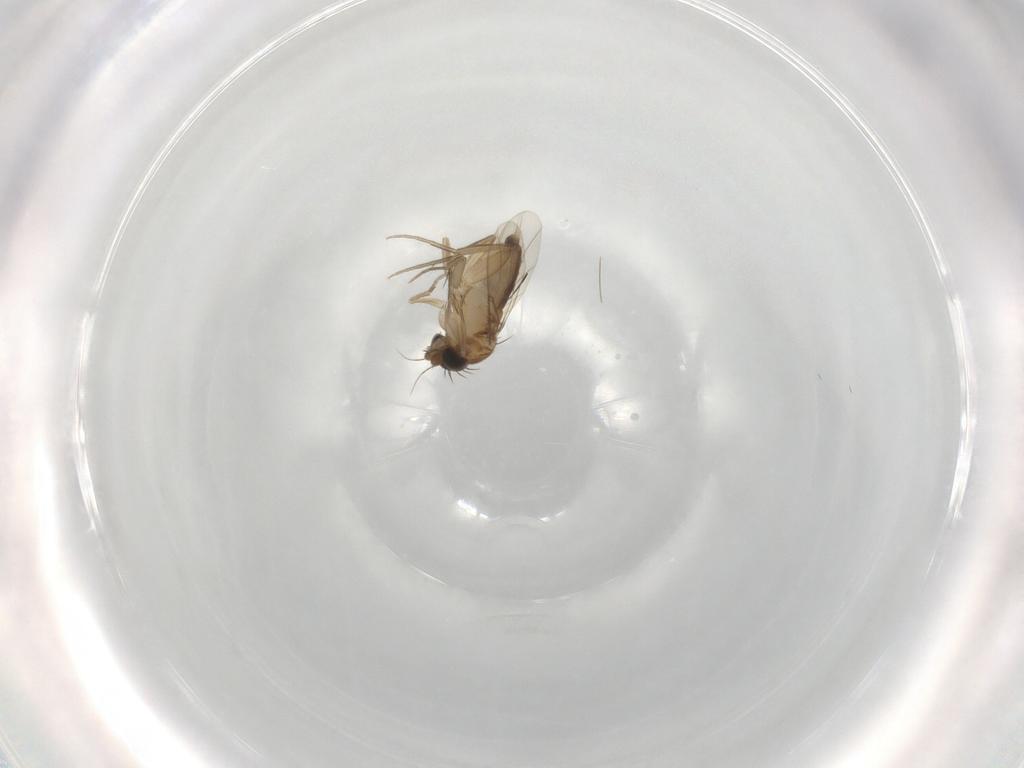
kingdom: Animalia
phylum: Arthropoda
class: Insecta
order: Diptera
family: Phoridae
